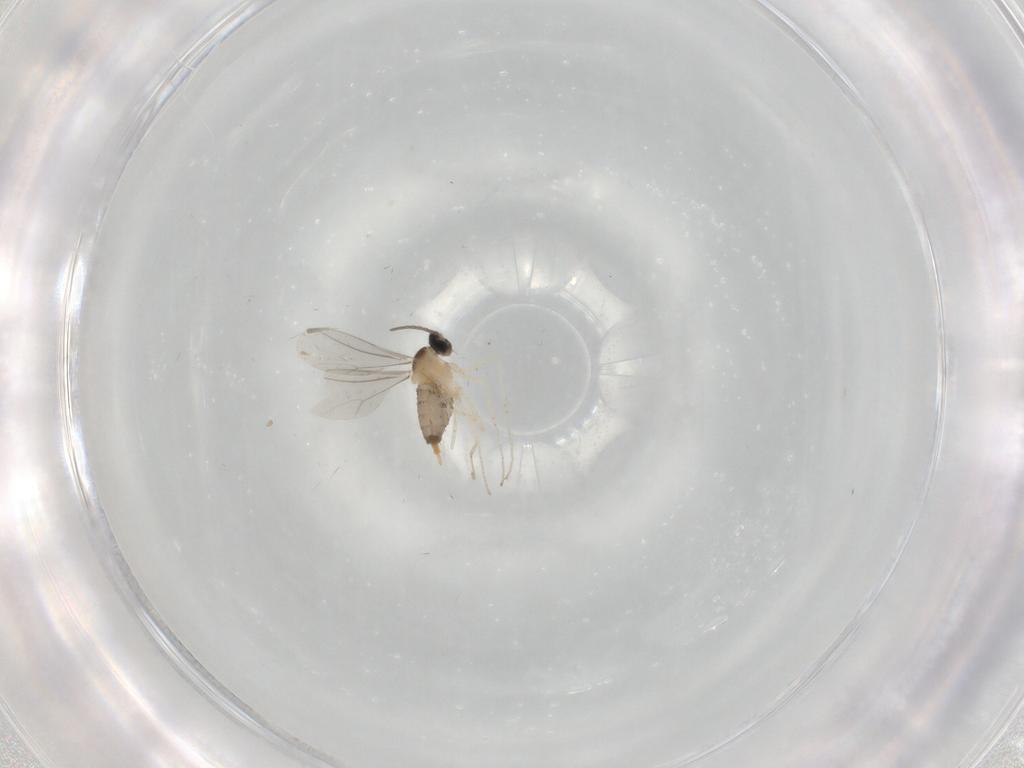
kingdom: Animalia
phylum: Arthropoda
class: Insecta
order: Diptera
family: Cecidomyiidae
